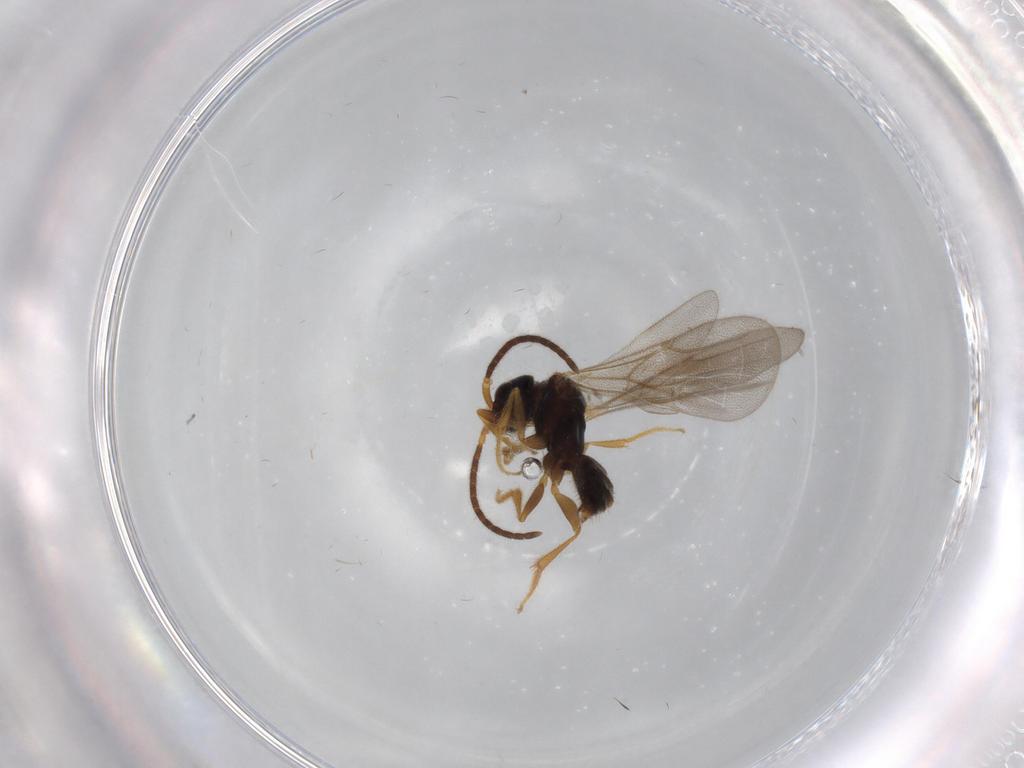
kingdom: Animalia
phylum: Arthropoda
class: Insecta
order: Hymenoptera
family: Bethylidae
